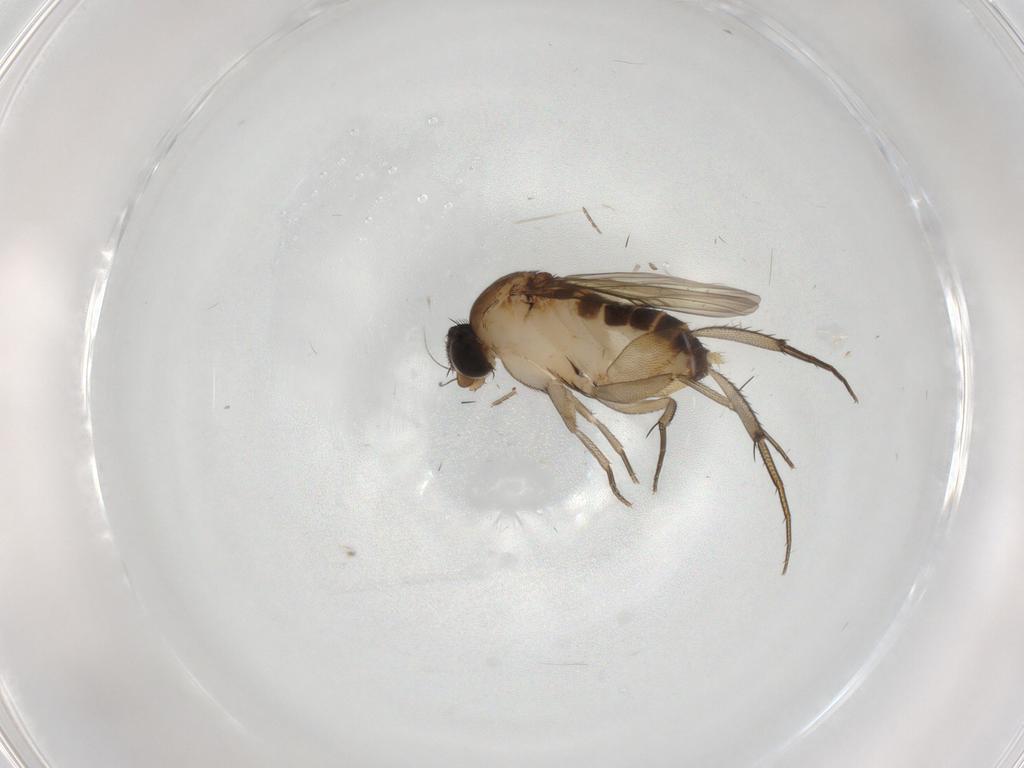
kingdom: Animalia
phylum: Arthropoda
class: Insecta
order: Diptera
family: Phoridae
